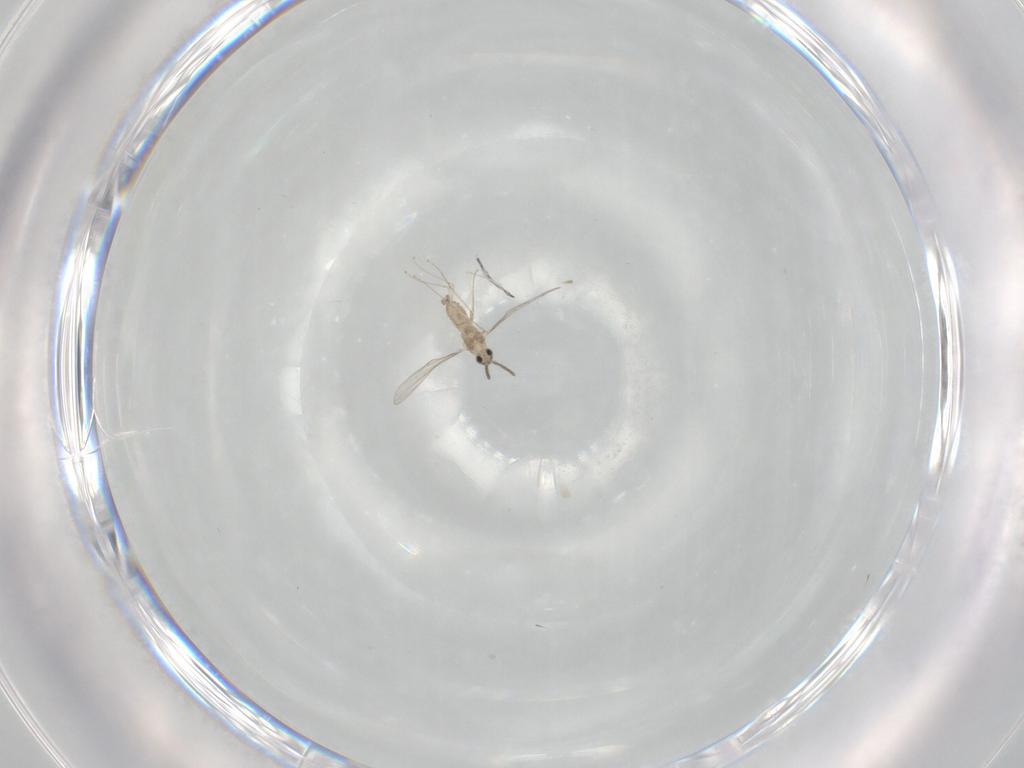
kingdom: Animalia
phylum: Arthropoda
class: Insecta
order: Diptera
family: Cecidomyiidae
